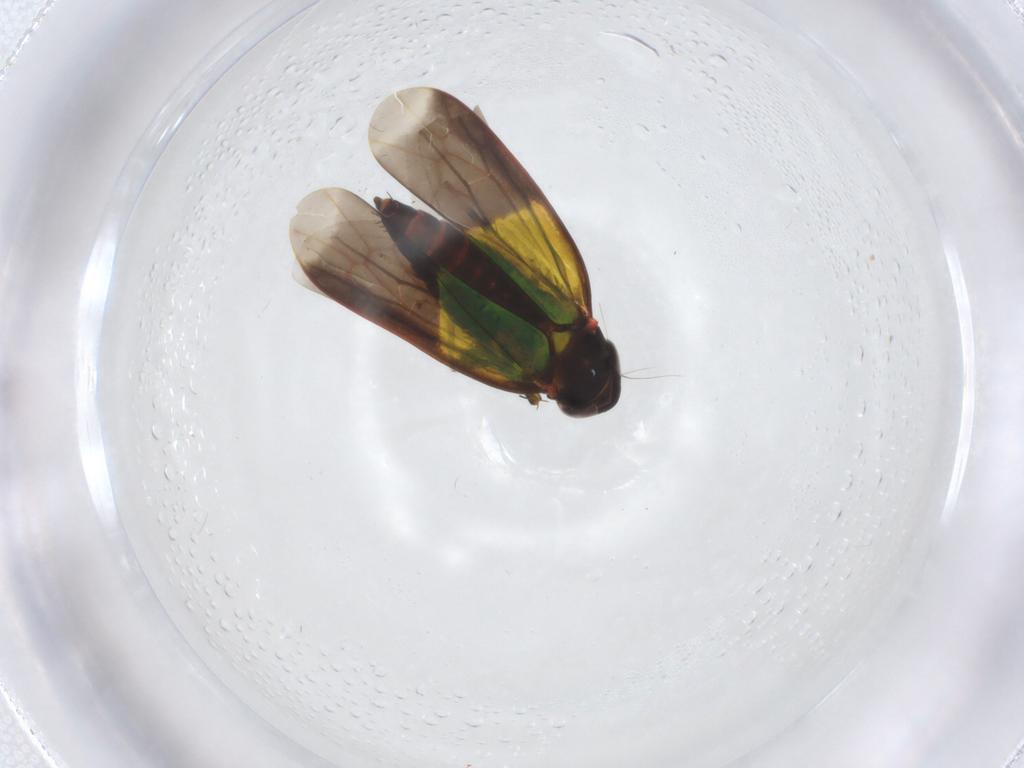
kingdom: Animalia
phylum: Arthropoda
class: Insecta
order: Hemiptera
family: Cicadellidae
